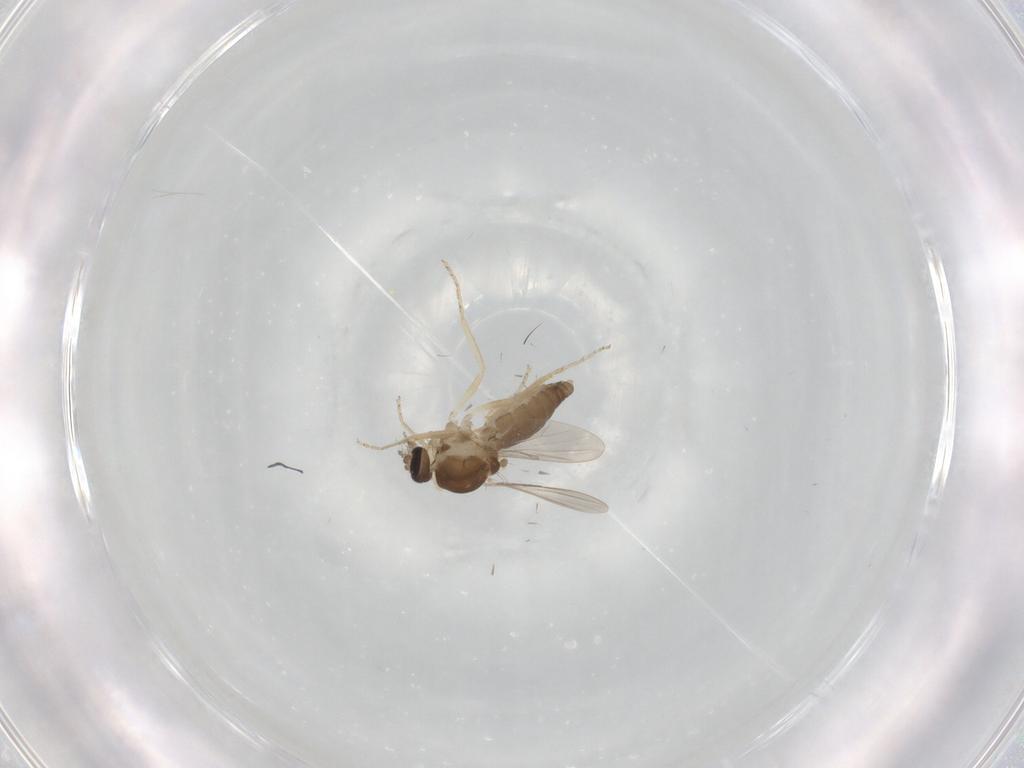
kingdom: Animalia
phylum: Arthropoda
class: Insecta
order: Diptera
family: Ceratopogonidae
